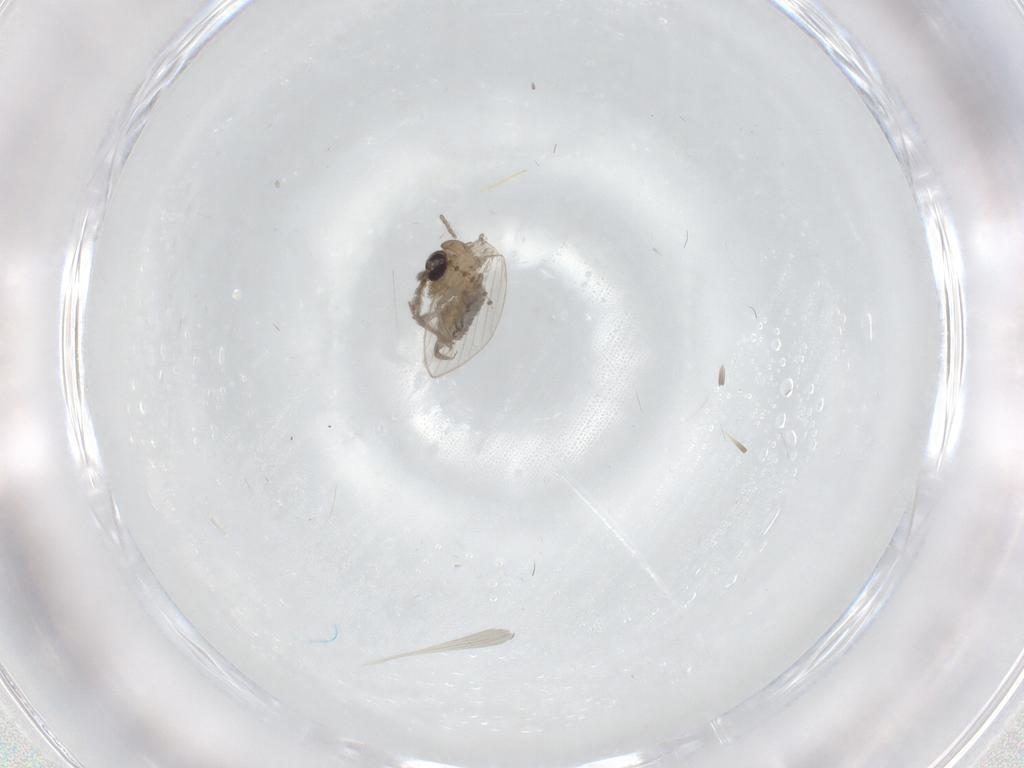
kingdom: Animalia
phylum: Arthropoda
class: Insecta
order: Diptera
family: Psychodidae
